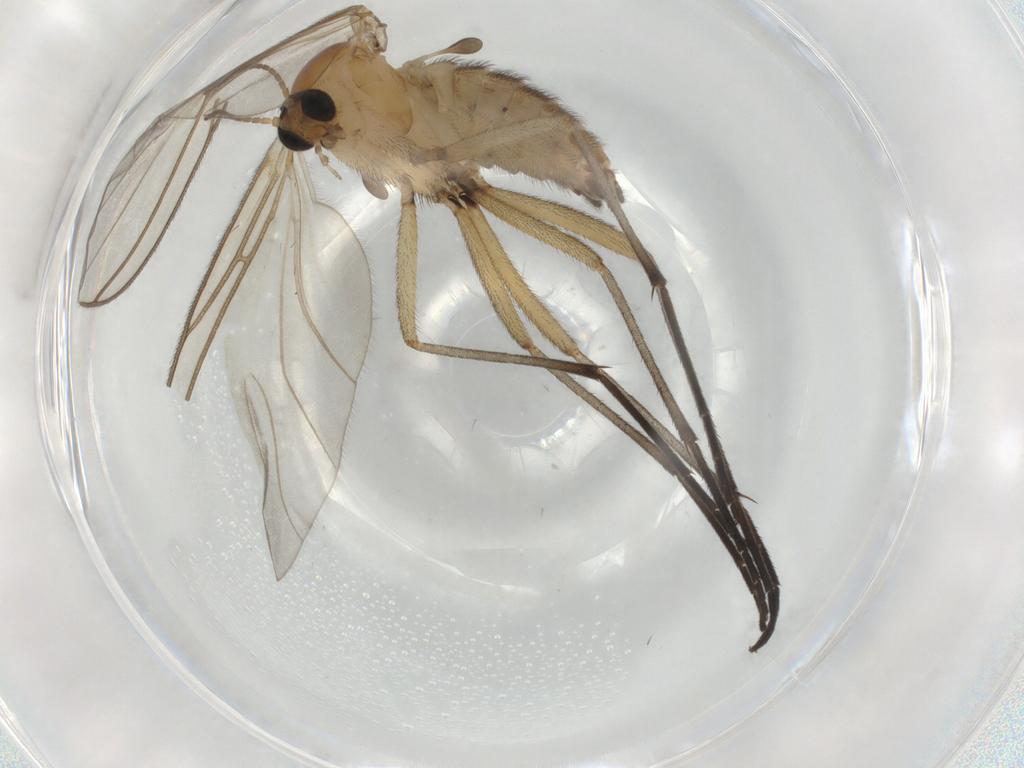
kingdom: Animalia
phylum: Arthropoda
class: Insecta
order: Diptera
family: Sciaridae
